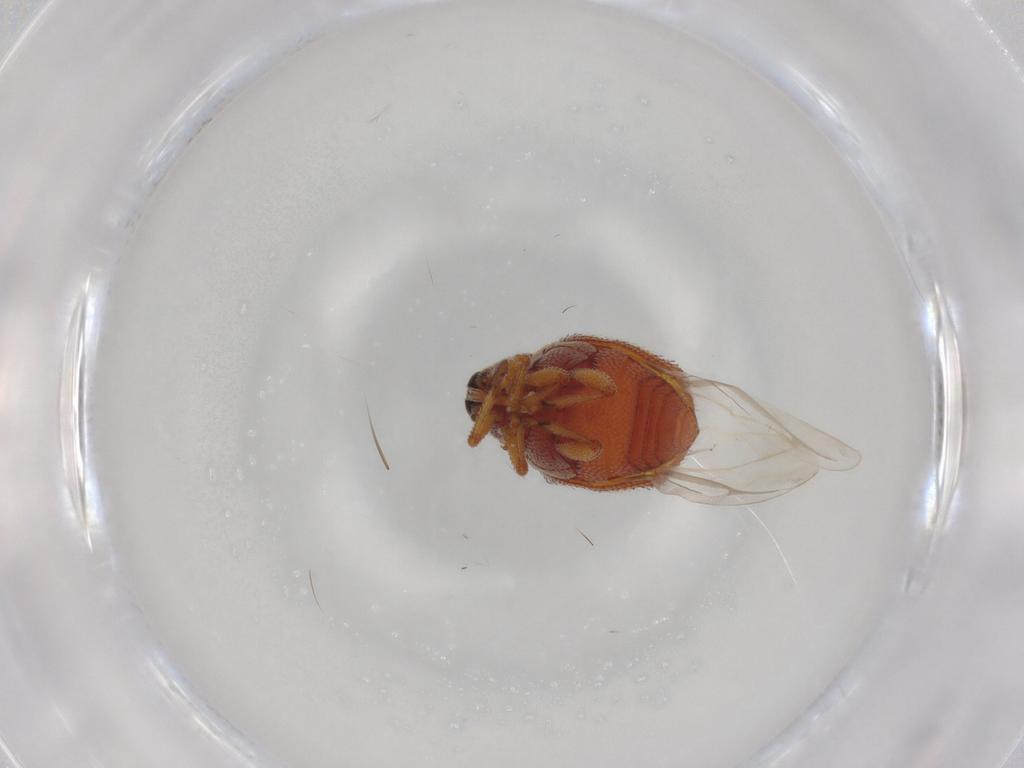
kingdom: Animalia
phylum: Arthropoda
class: Insecta
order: Coleoptera
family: Curculionidae
